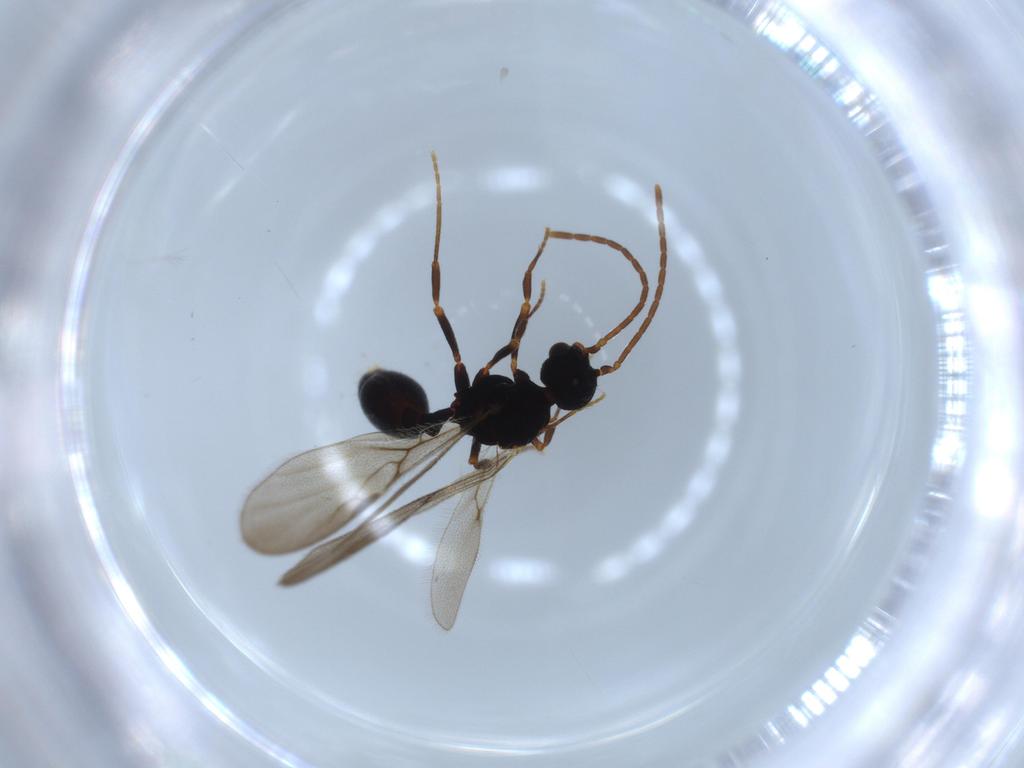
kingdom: Animalia
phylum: Arthropoda
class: Insecta
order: Hymenoptera
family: Formicidae
